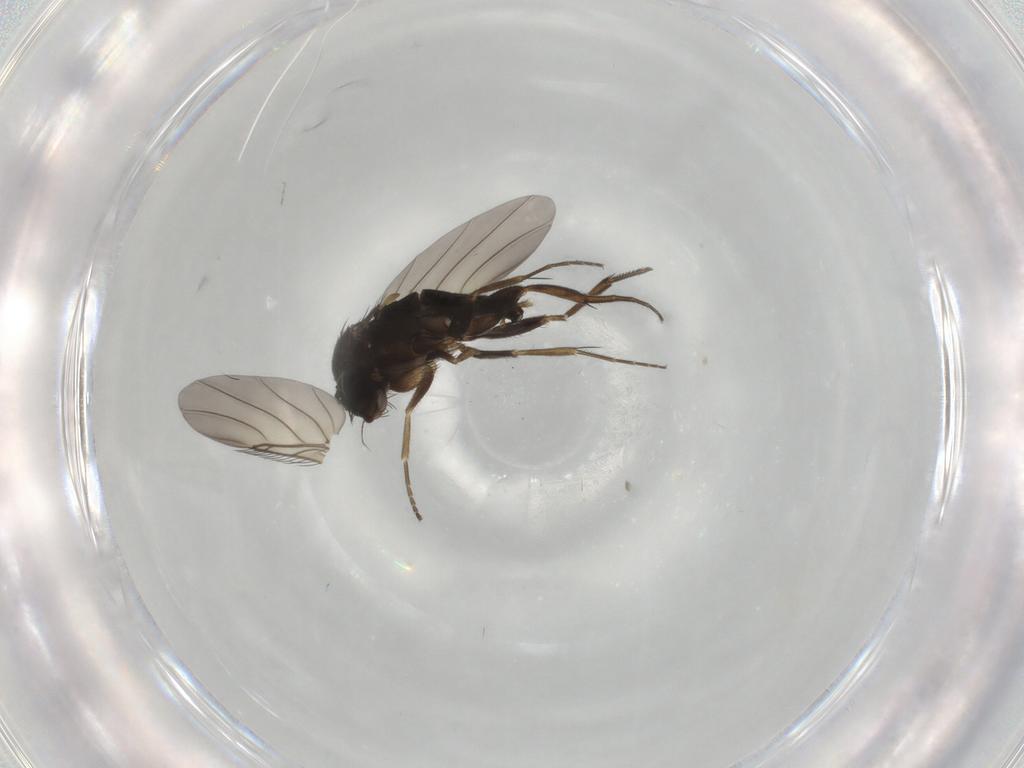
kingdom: Animalia
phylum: Arthropoda
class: Insecta
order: Diptera
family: Phoridae
